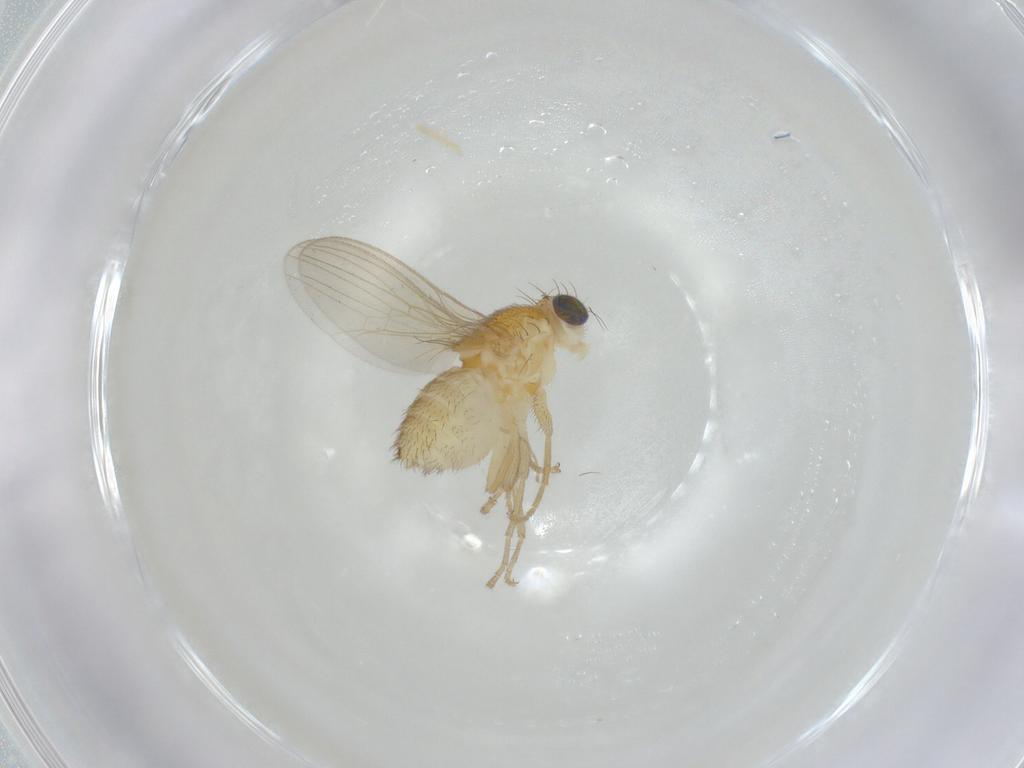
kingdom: Animalia
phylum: Arthropoda
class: Insecta
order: Diptera
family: Chyromyidae
